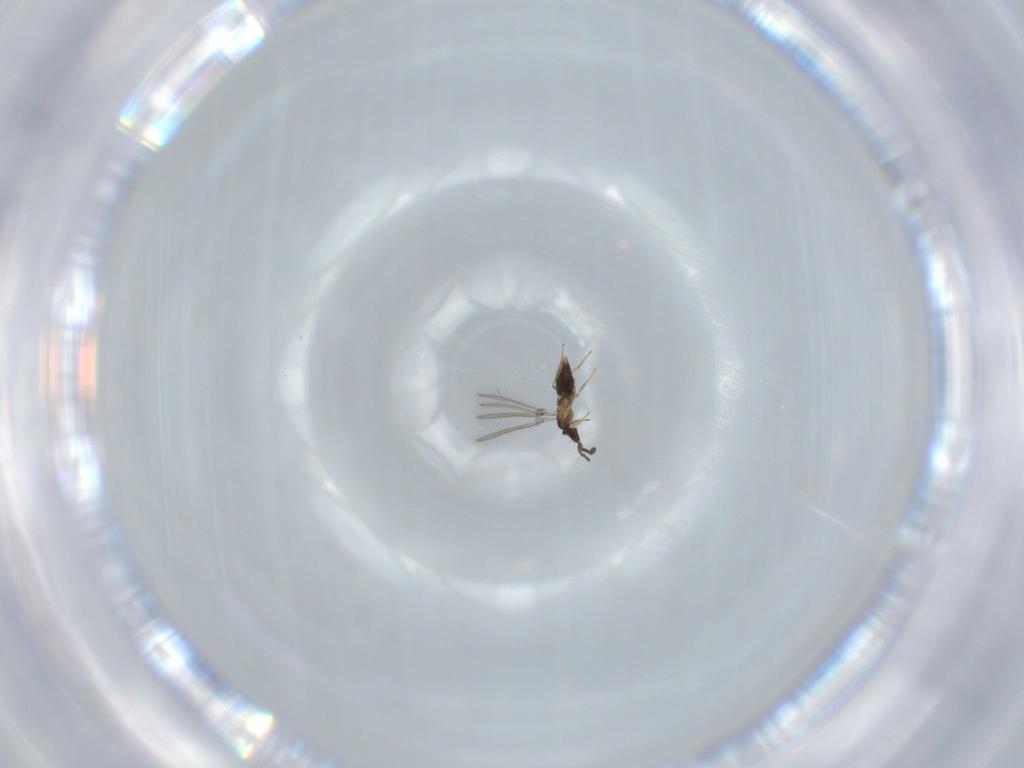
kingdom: Animalia
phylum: Arthropoda
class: Insecta
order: Hymenoptera
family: Mymaridae
